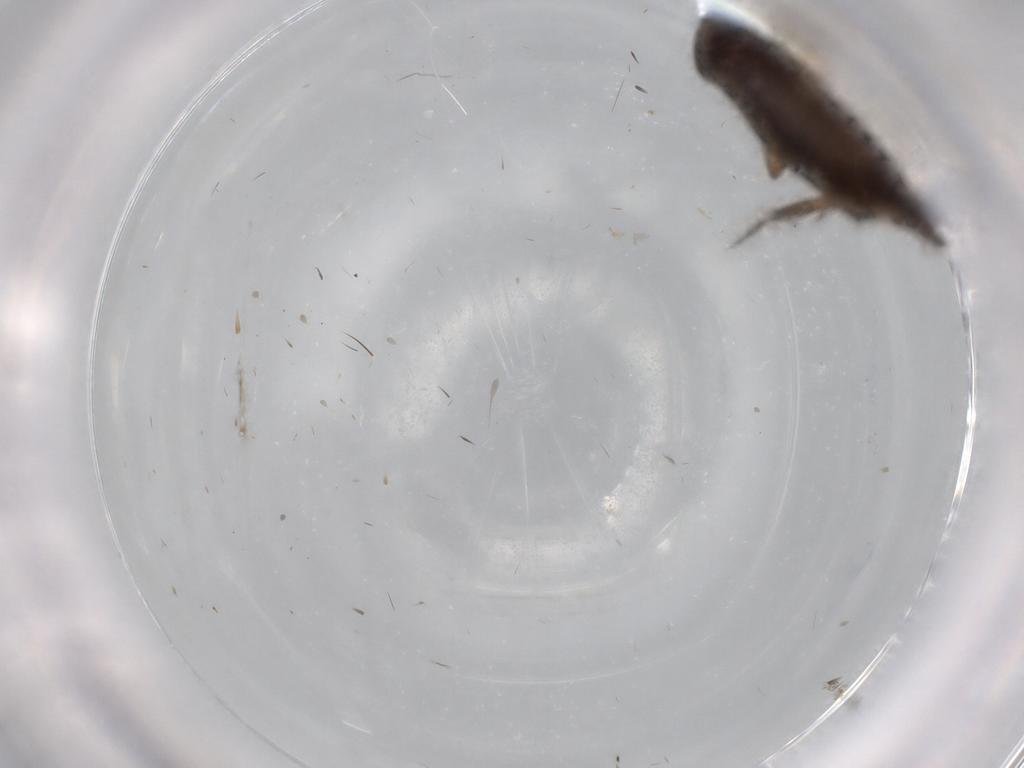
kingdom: Animalia
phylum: Arthropoda
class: Insecta
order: Hemiptera
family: Cicadellidae
